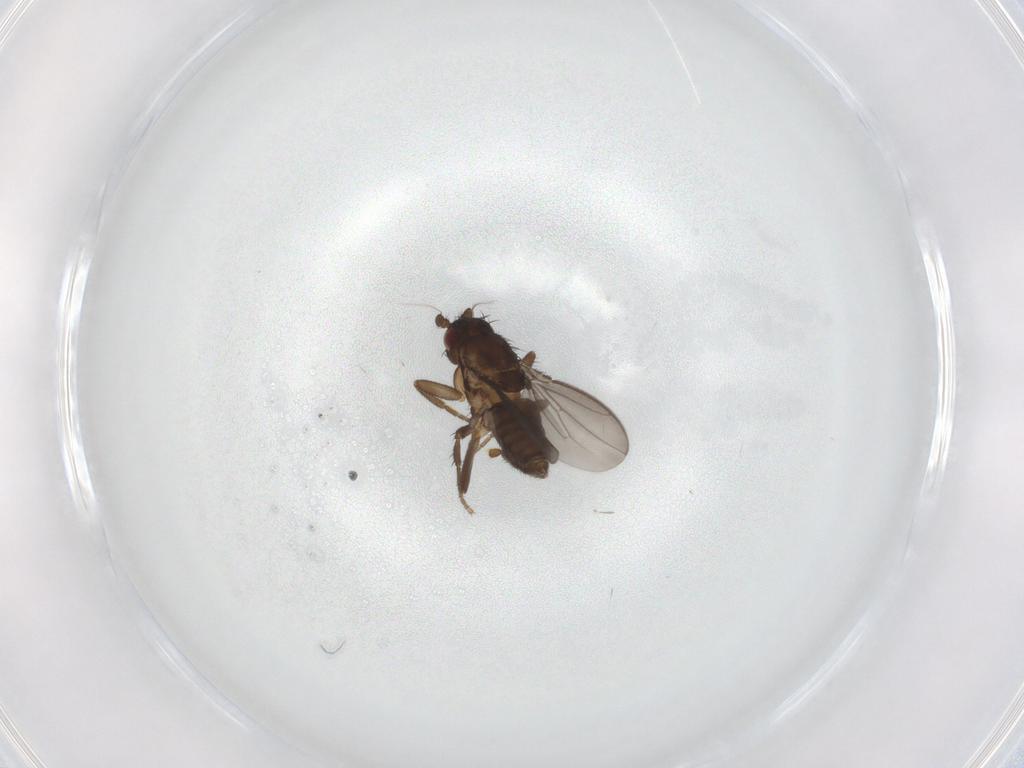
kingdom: Animalia
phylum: Arthropoda
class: Insecta
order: Diptera
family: Sphaeroceridae
